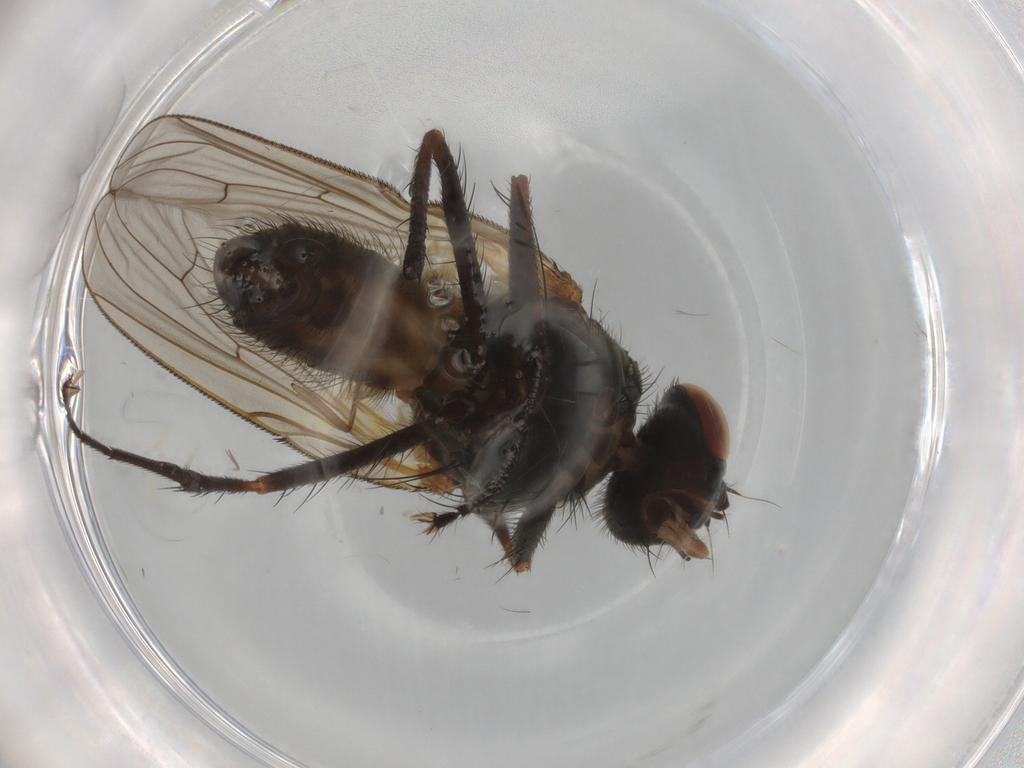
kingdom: Animalia
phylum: Arthropoda
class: Insecta
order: Diptera
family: Anthomyiidae
